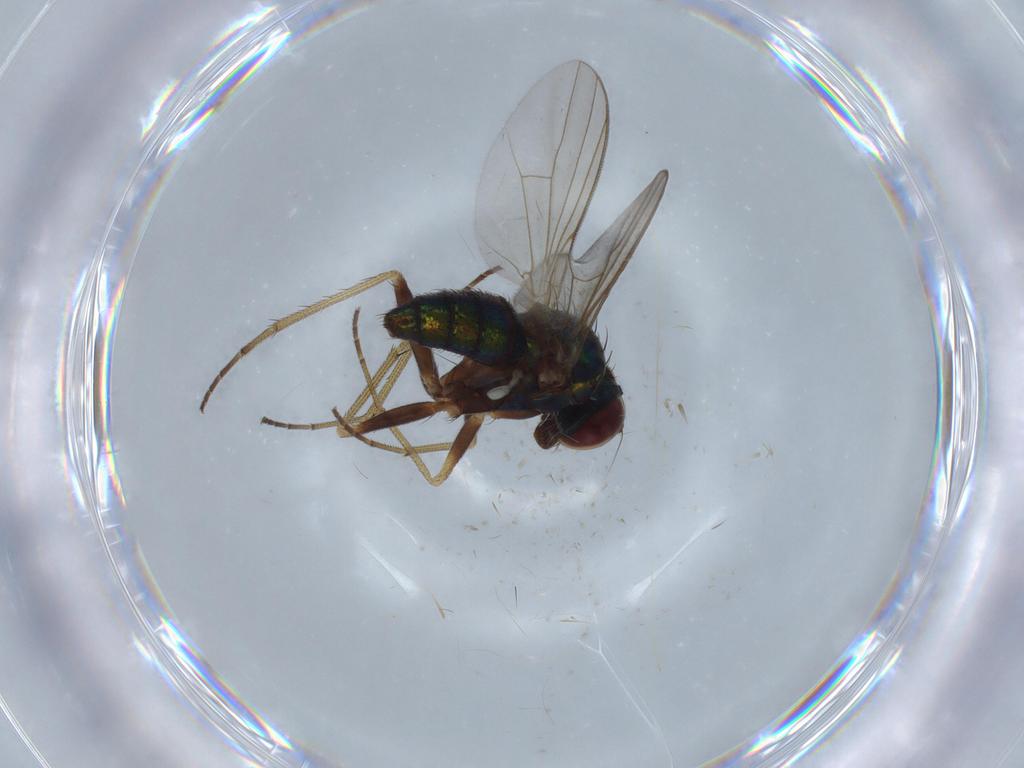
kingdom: Animalia
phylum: Arthropoda
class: Insecta
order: Diptera
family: Dolichopodidae
